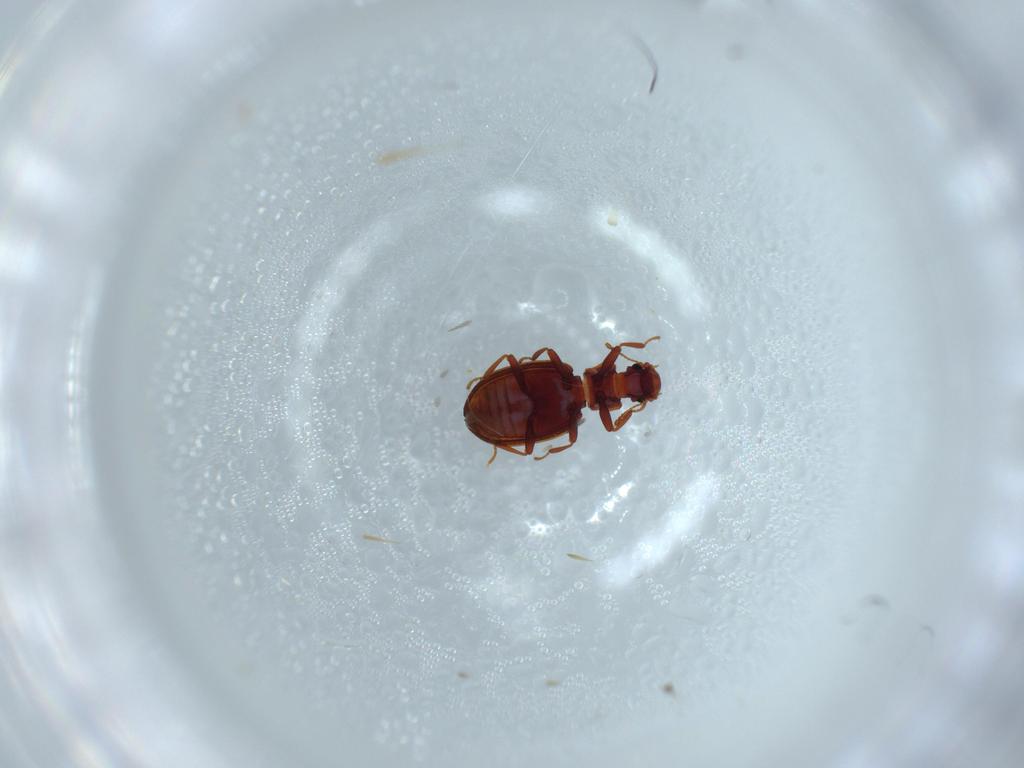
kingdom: Animalia
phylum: Arthropoda
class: Insecta
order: Coleoptera
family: Latridiidae
